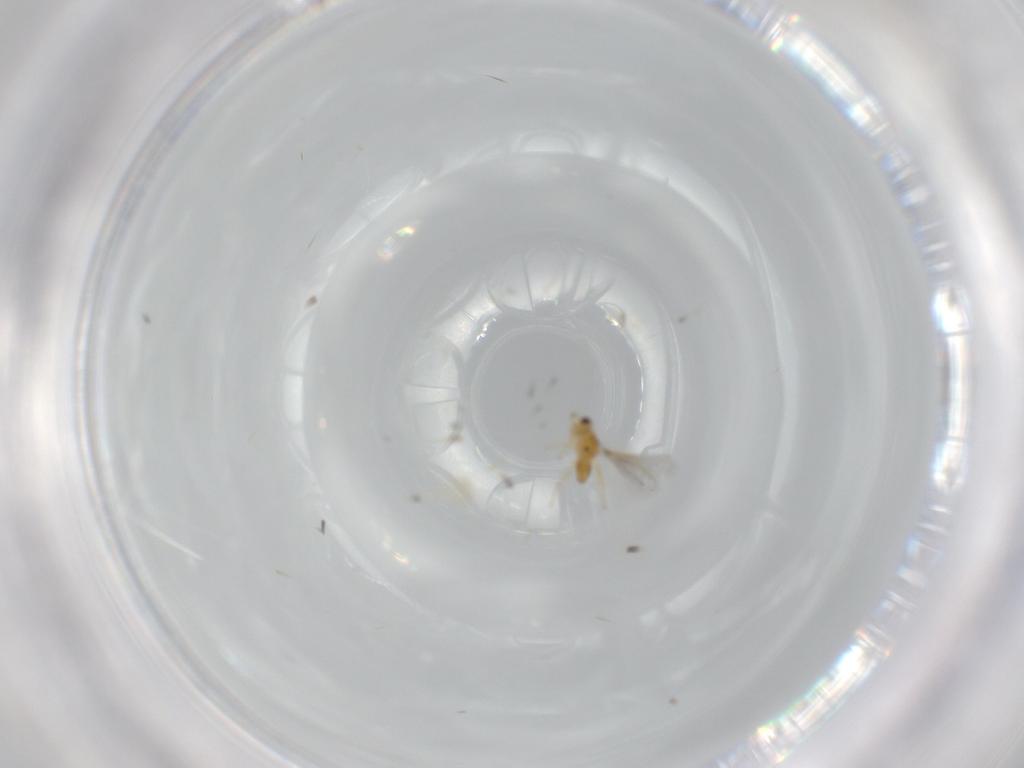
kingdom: Animalia
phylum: Arthropoda
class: Insecta
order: Hymenoptera
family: Mymaridae
